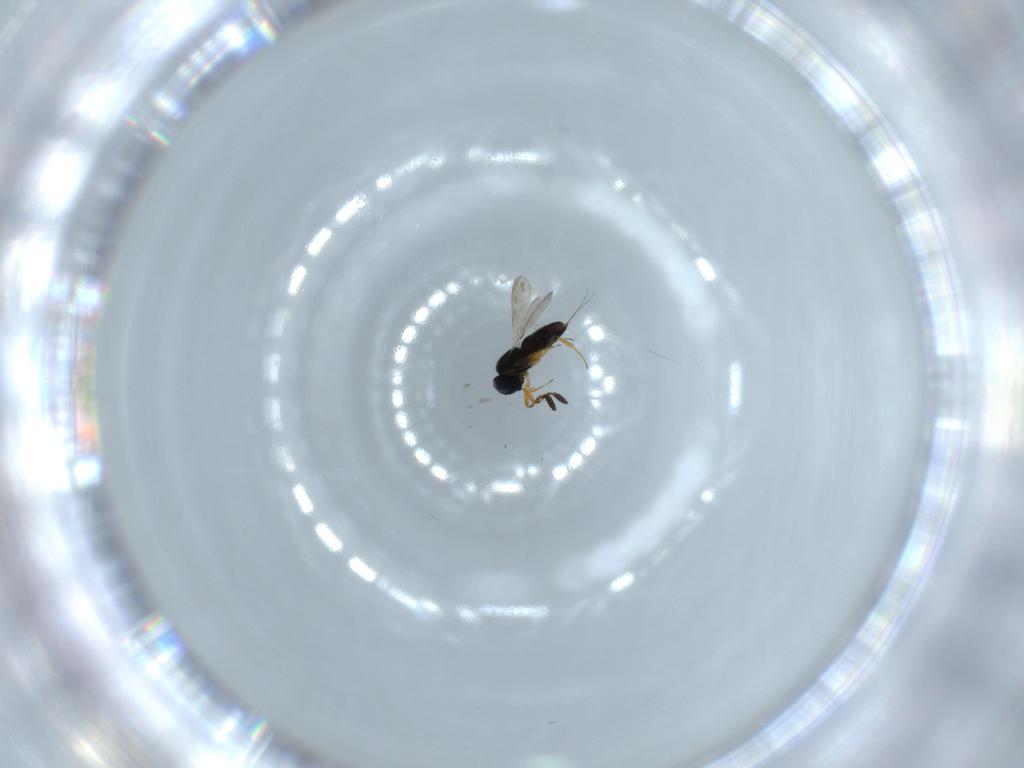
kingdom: Animalia
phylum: Arthropoda
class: Insecta
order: Hymenoptera
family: Scelionidae
